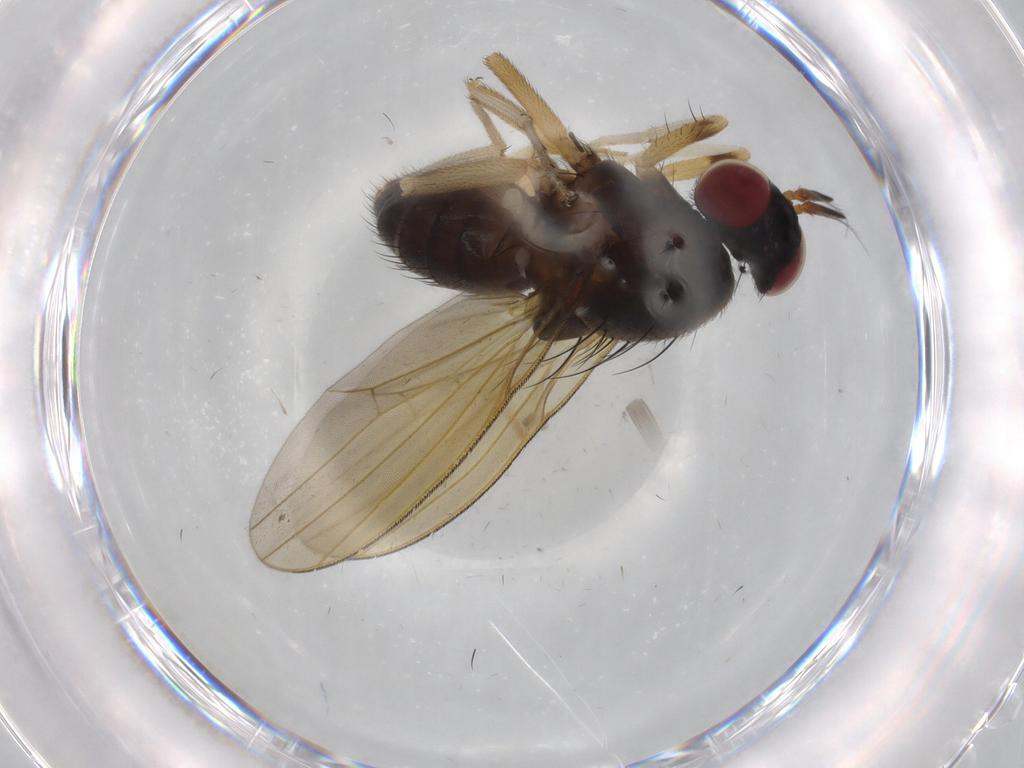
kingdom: Animalia
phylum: Arthropoda
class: Insecta
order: Diptera
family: Chironomidae
